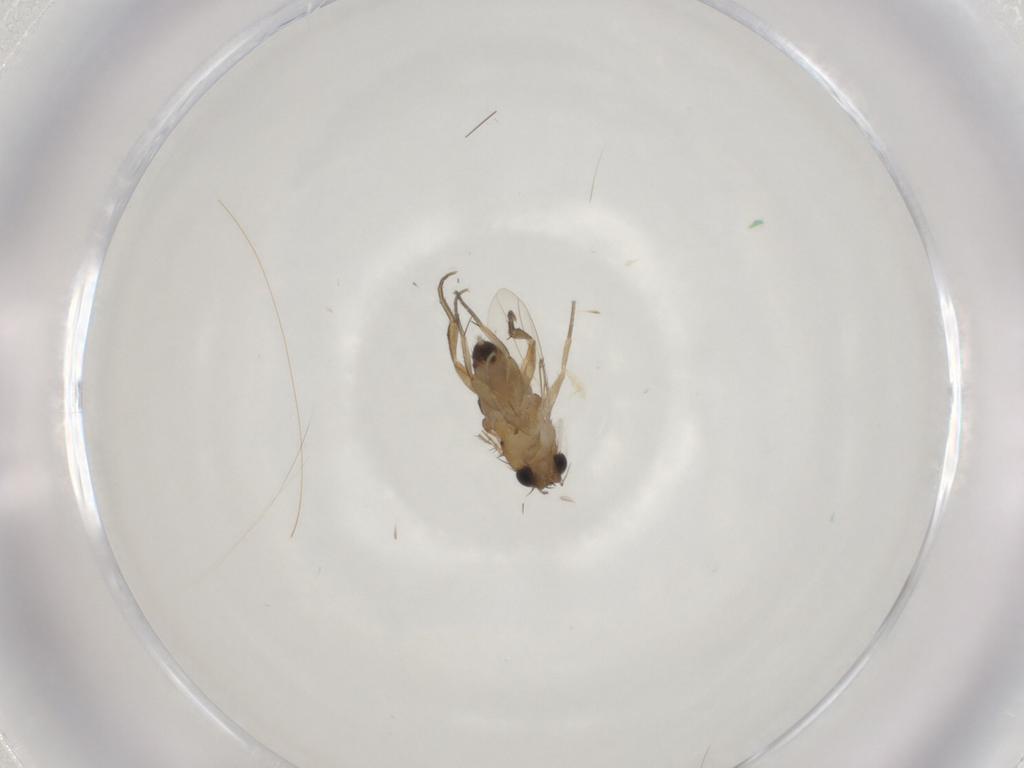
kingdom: Animalia
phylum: Arthropoda
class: Insecta
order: Diptera
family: Phoridae
